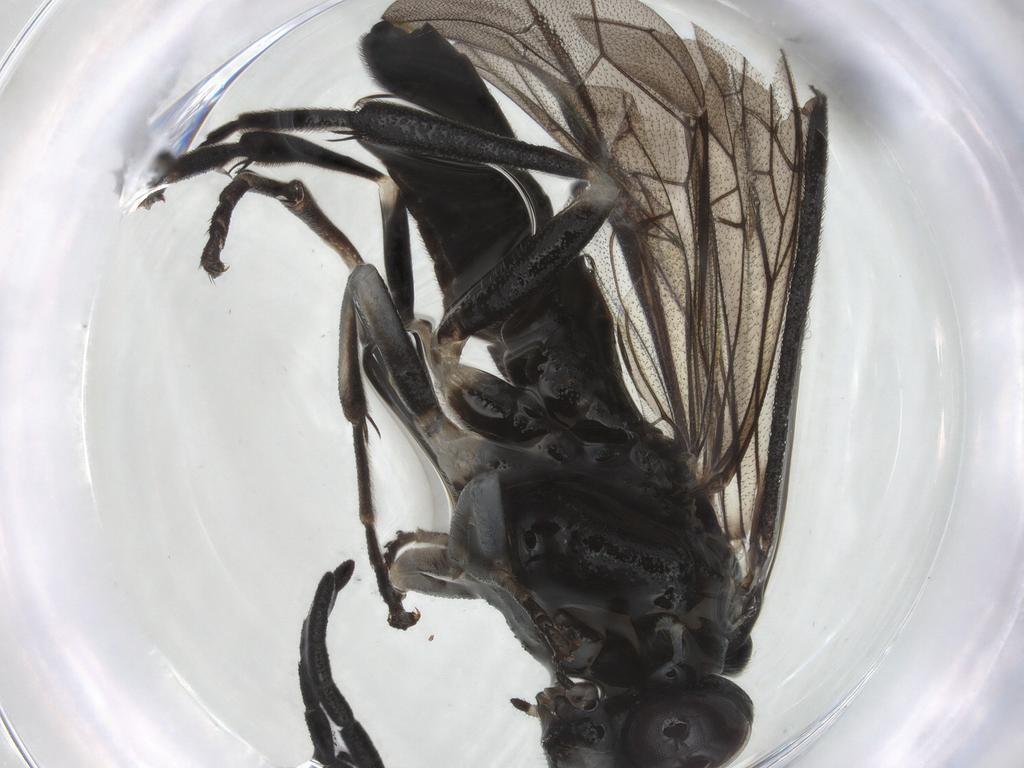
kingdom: Animalia
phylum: Arthropoda
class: Insecta
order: Hymenoptera
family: Tenthredinidae
